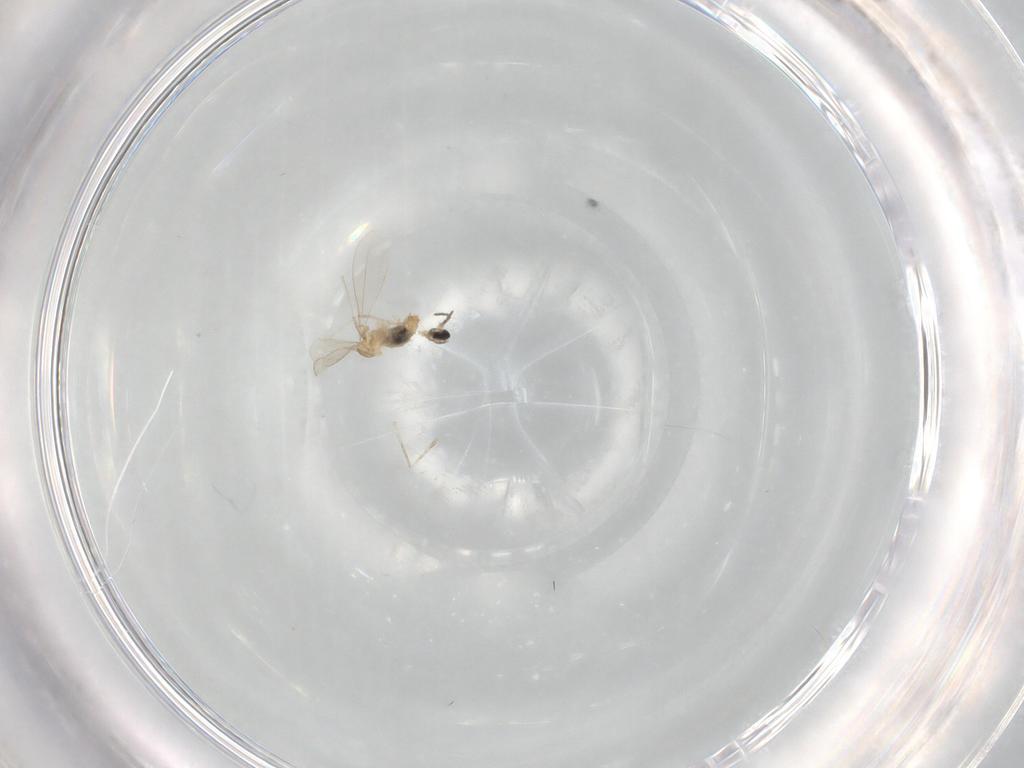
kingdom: Animalia
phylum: Arthropoda
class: Insecta
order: Diptera
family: Cecidomyiidae
